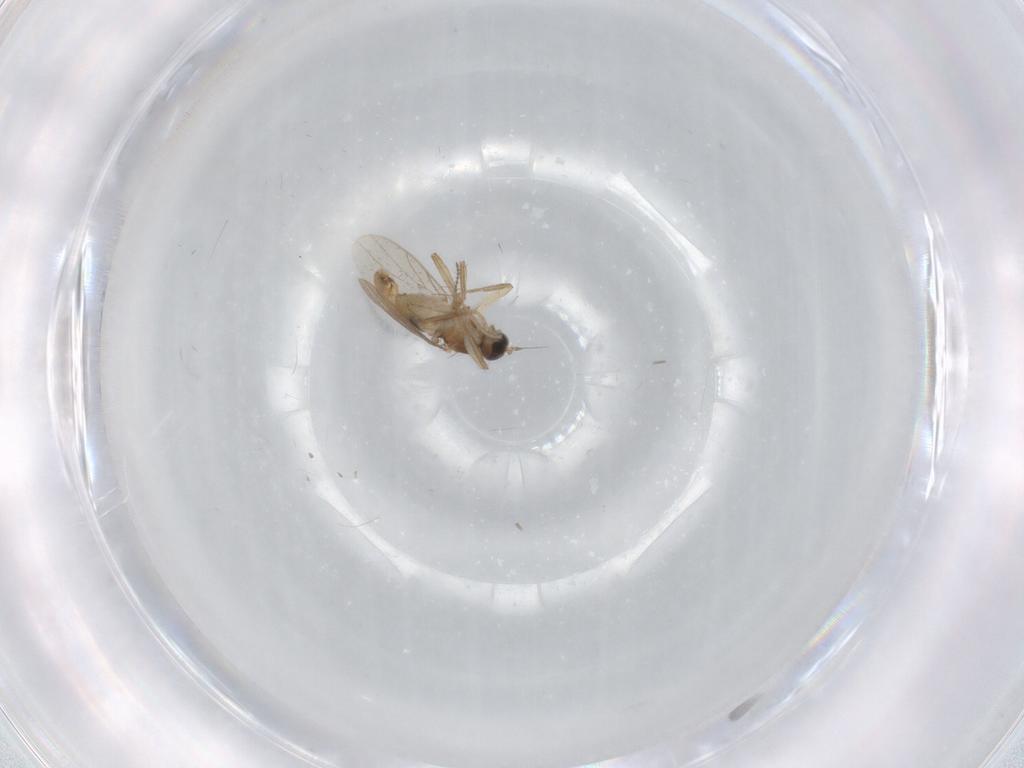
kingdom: Animalia
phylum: Arthropoda
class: Insecta
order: Diptera
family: Hybotidae
